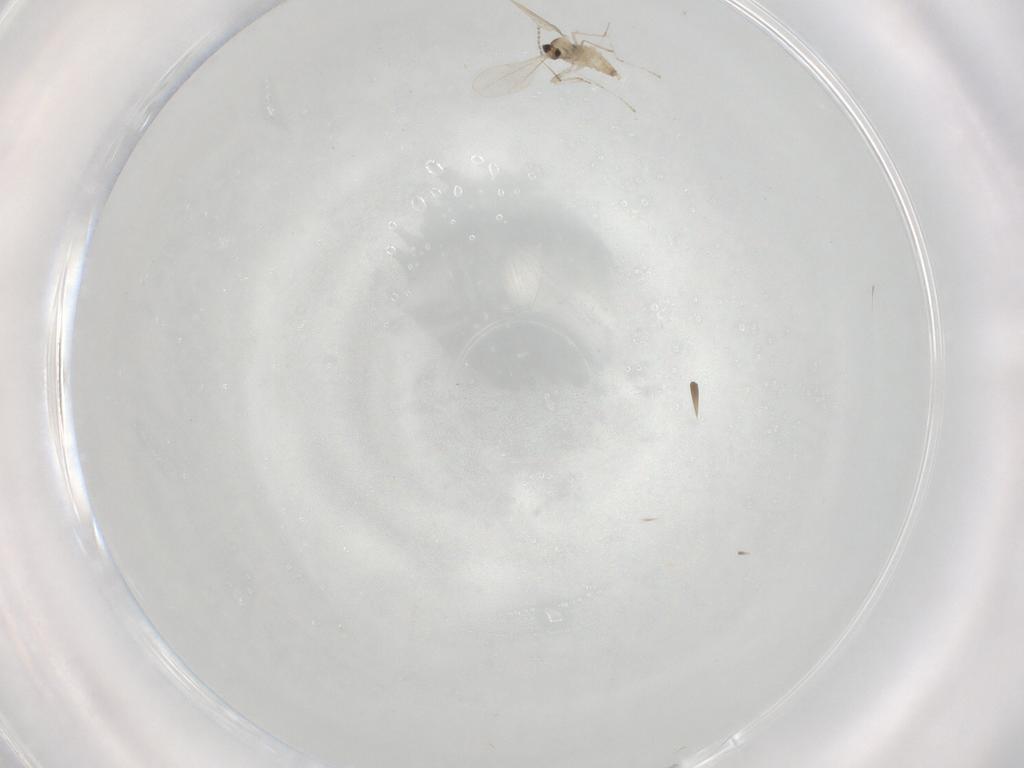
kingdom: Animalia
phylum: Arthropoda
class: Insecta
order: Diptera
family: Cecidomyiidae
